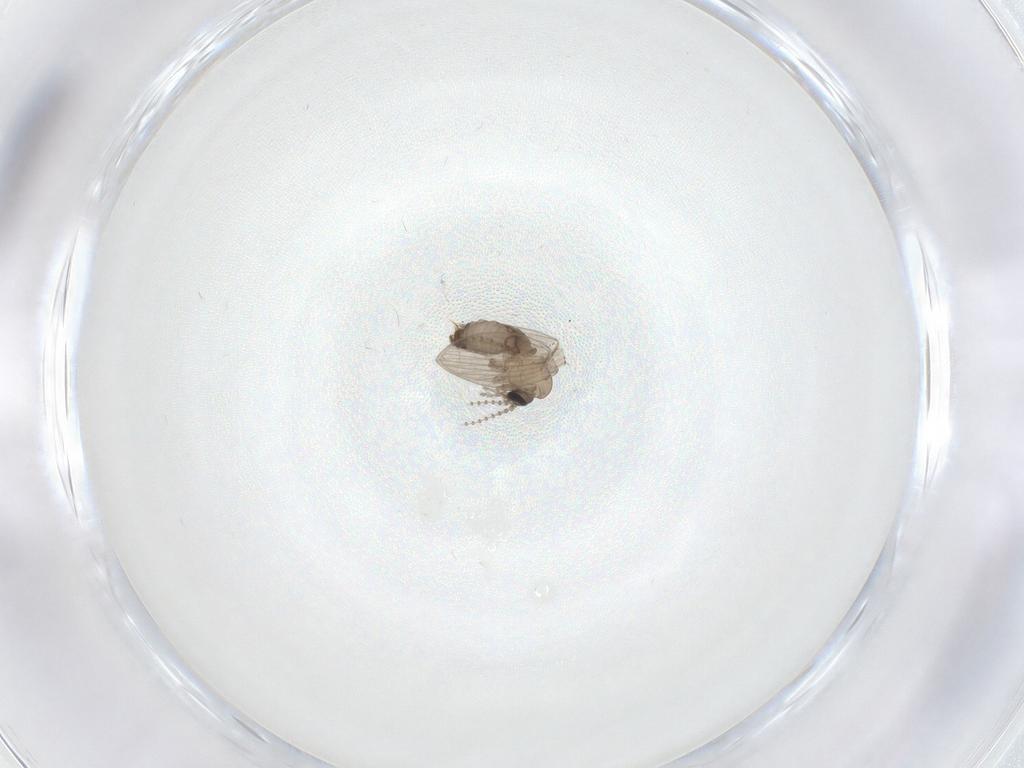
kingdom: Animalia
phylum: Arthropoda
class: Insecta
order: Diptera
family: Psychodidae
